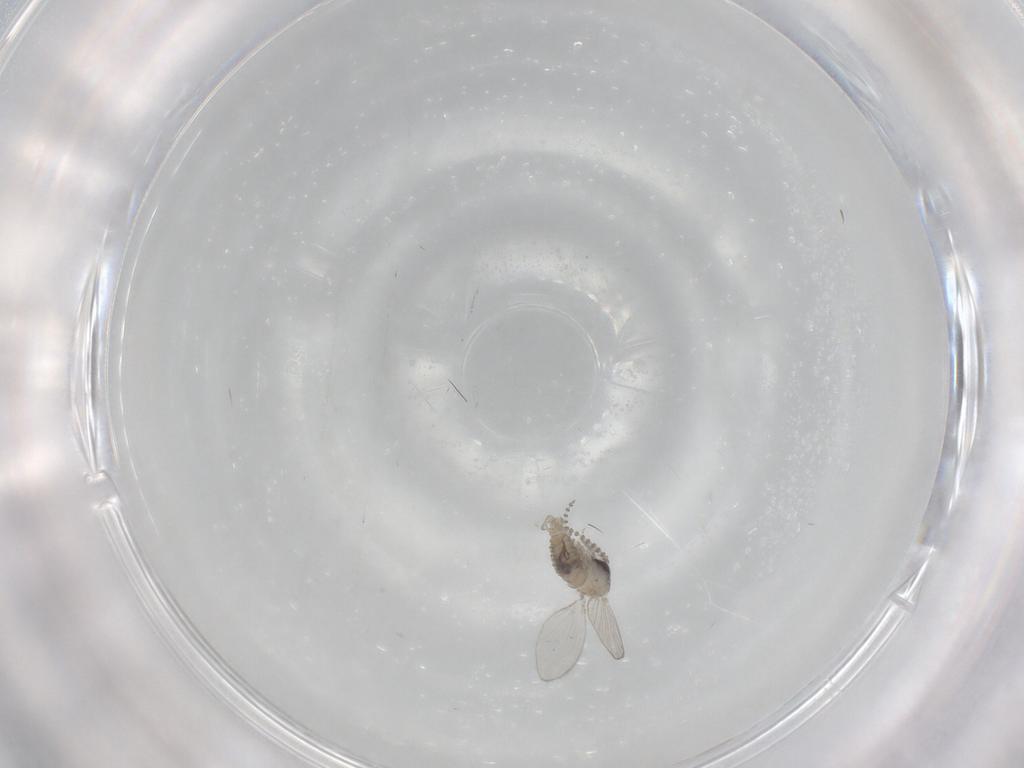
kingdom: Animalia
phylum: Arthropoda
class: Insecta
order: Diptera
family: Psychodidae
